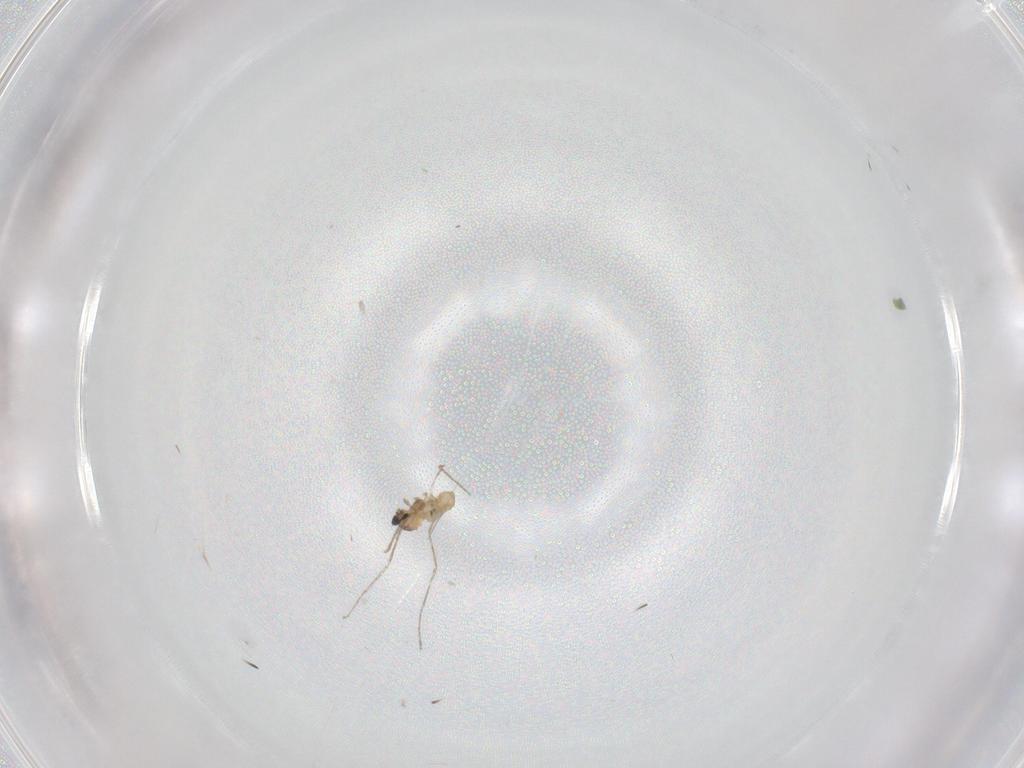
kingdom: Animalia
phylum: Arthropoda
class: Insecta
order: Diptera
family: Cecidomyiidae
